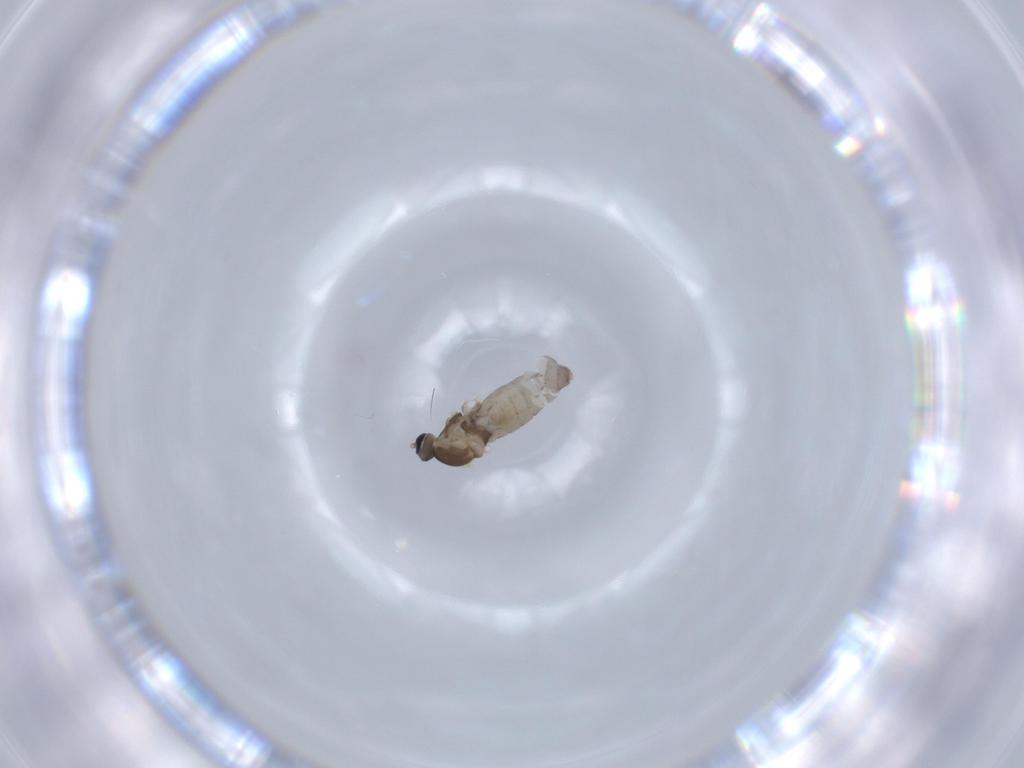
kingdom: Animalia
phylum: Arthropoda
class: Insecta
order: Diptera
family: Cecidomyiidae
